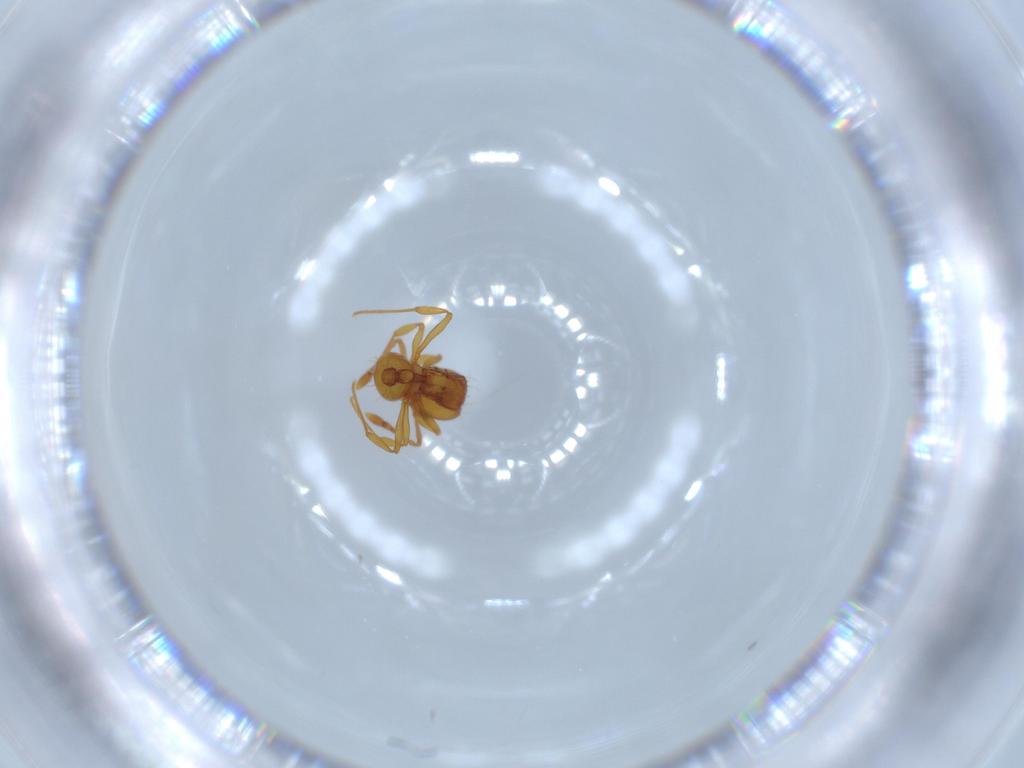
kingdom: Animalia
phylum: Arthropoda
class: Insecta
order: Hymenoptera
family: Formicidae
